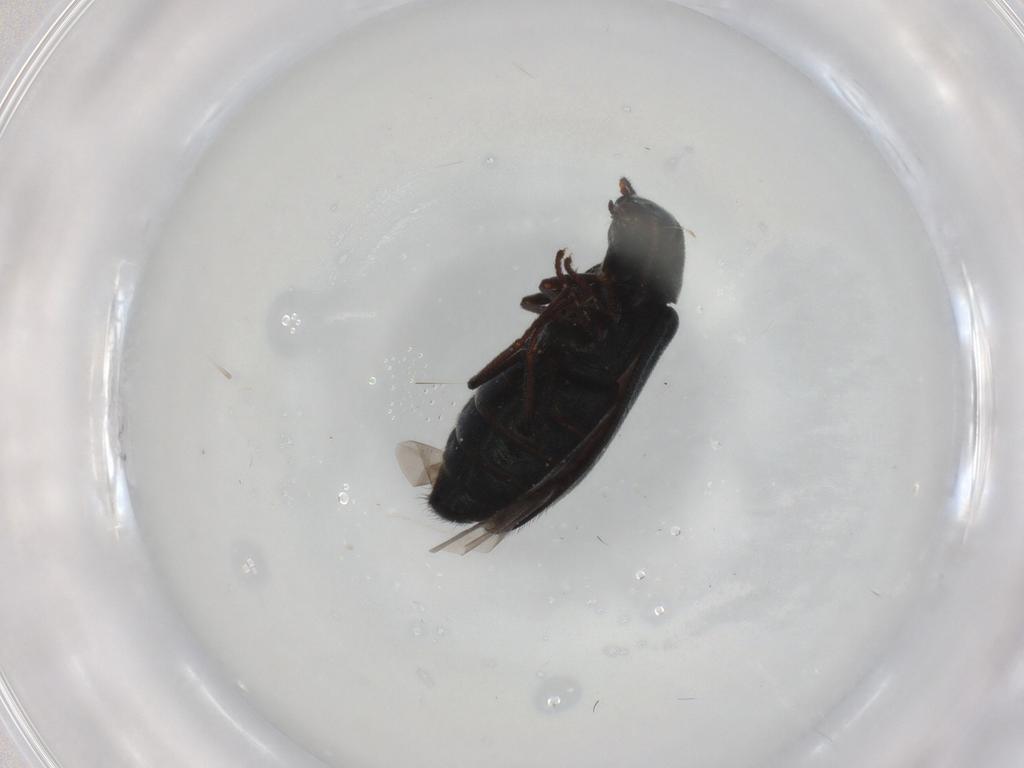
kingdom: Animalia
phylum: Arthropoda
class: Insecta
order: Coleoptera
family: Melyridae
